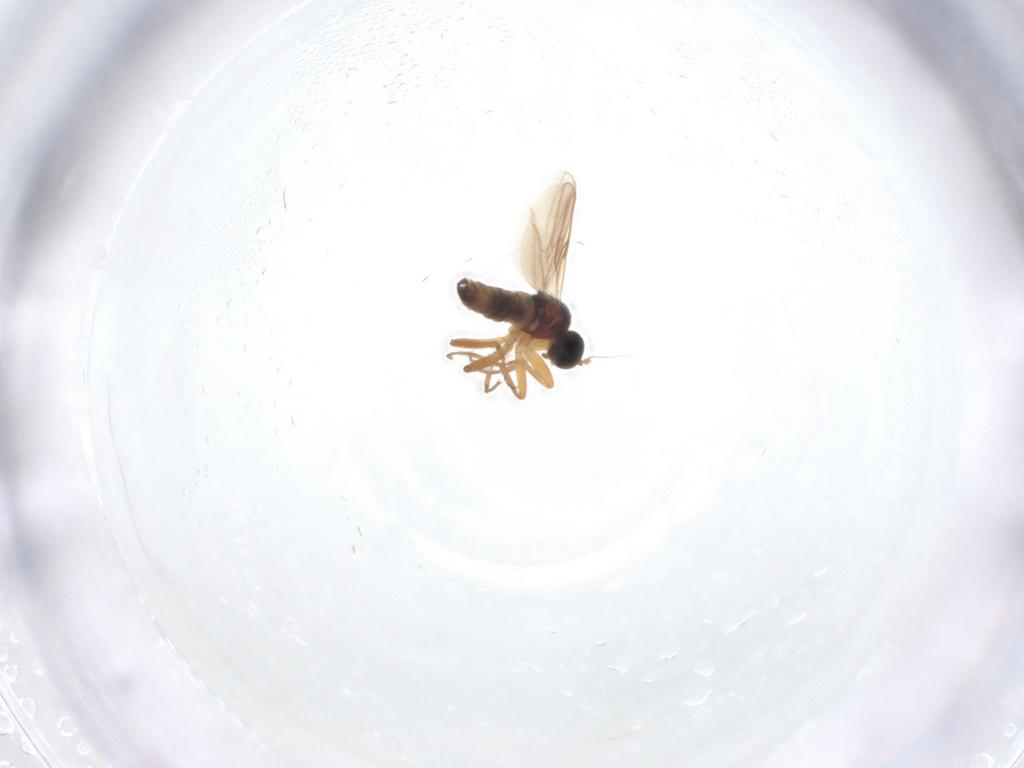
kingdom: Animalia
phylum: Arthropoda
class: Insecta
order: Diptera
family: Hybotidae
